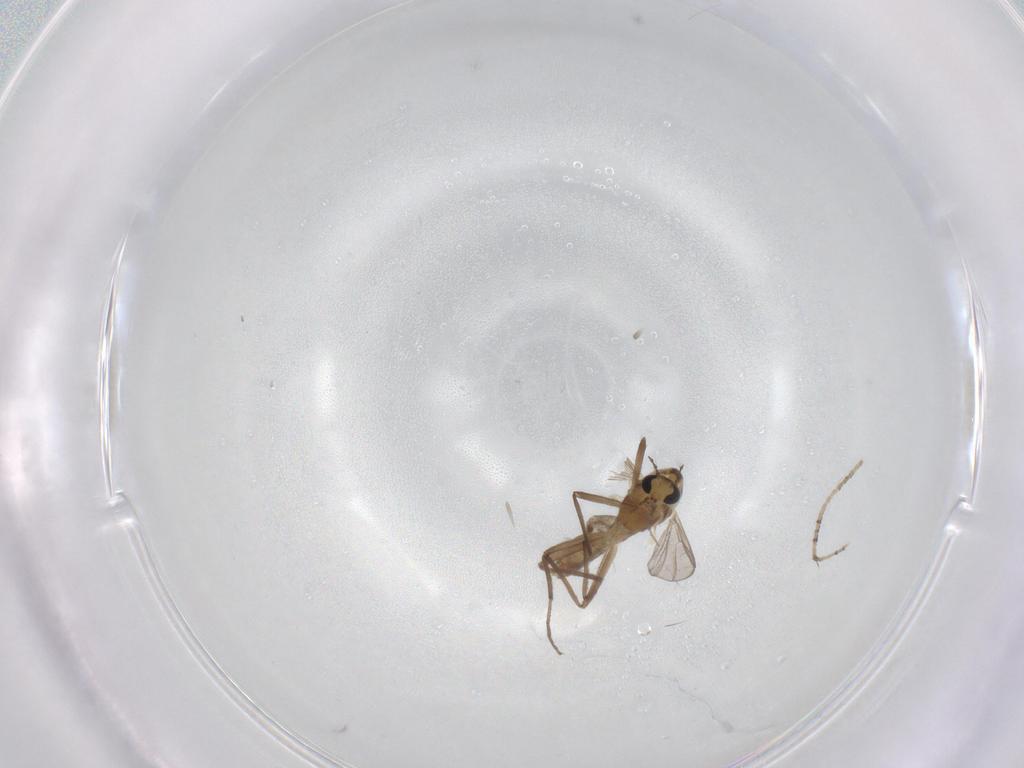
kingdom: Animalia
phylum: Arthropoda
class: Insecta
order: Diptera
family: Chironomidae
